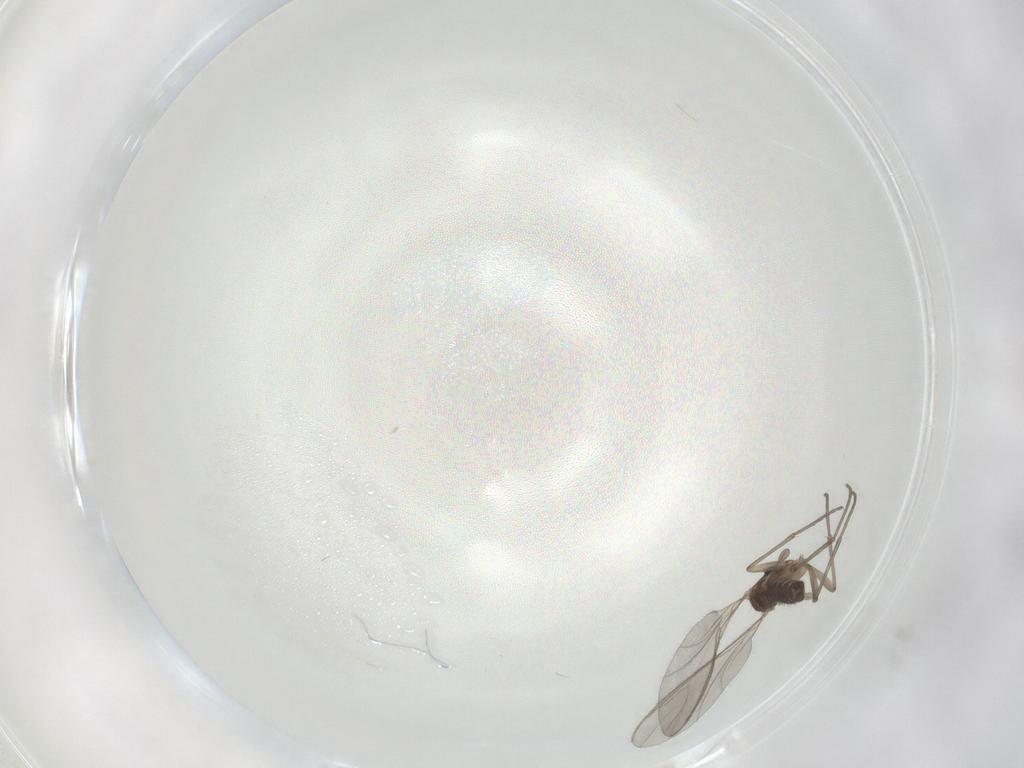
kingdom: Animalia
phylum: Arthropoda
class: Insecta
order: Diptera
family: Sciaridae
